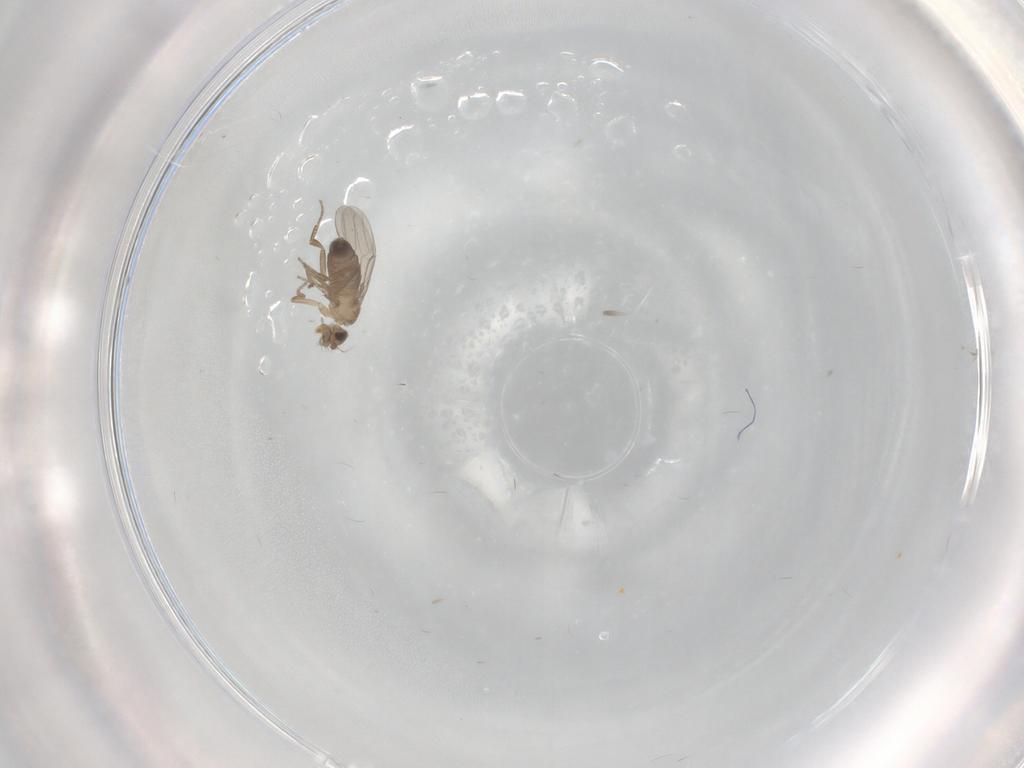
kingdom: Animalia
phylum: Arthropoda
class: Insecta
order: Diptera
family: Phoridae
